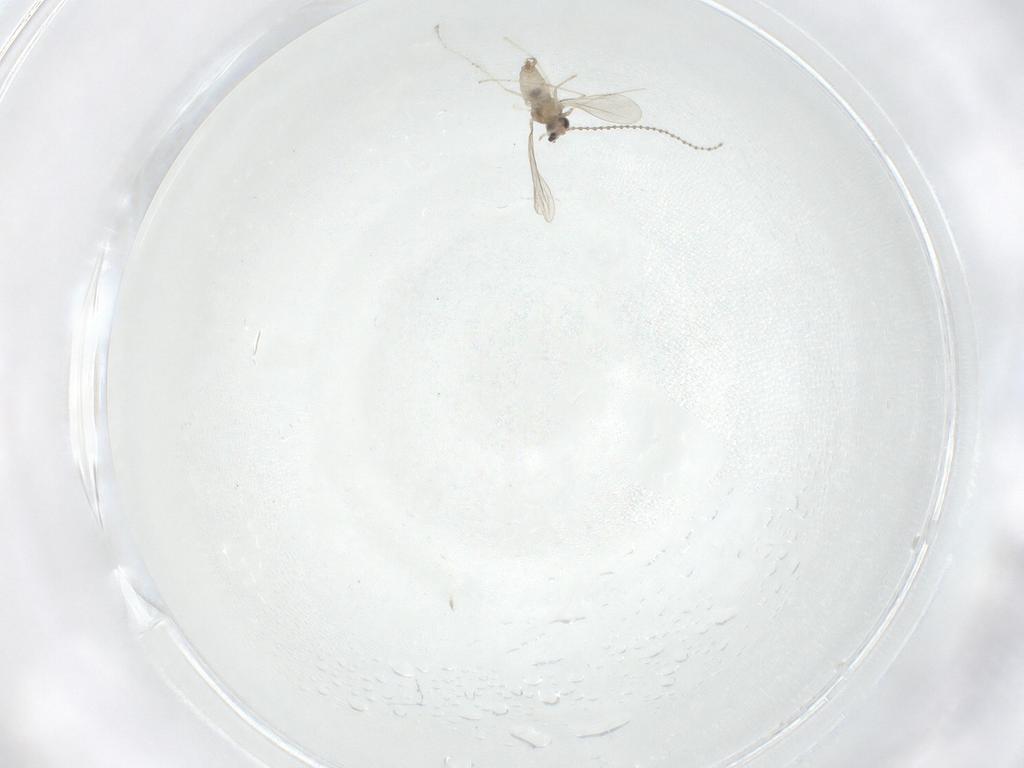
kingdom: Animalia
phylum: Arthropoda
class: Insecta
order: Diptera
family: Cecidomyiidae
